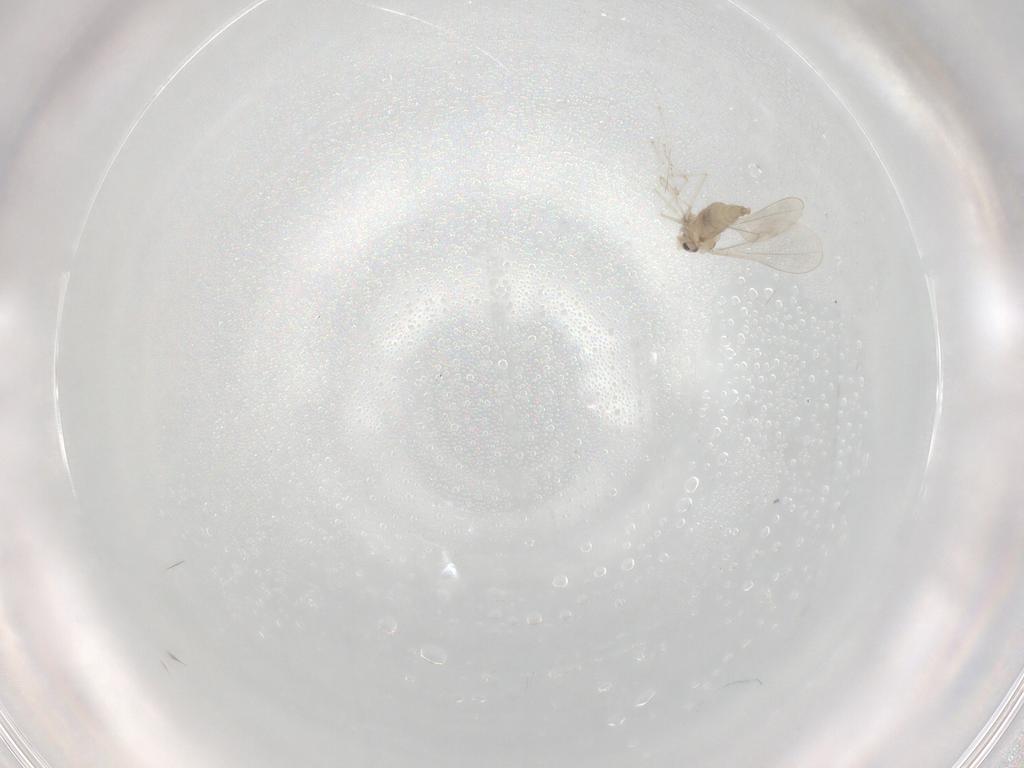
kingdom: Animalia
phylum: Arthropoda
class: Insecta
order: Diptera
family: Cecidomyiidae
